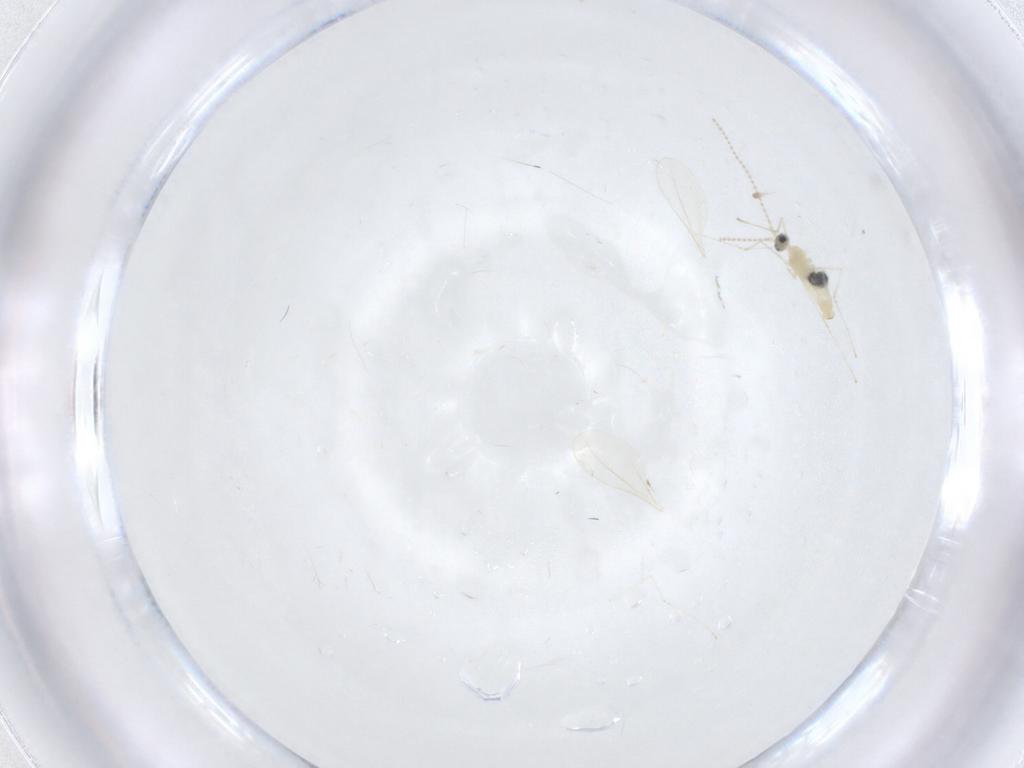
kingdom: Animalia
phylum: Arthropoda
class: Insecta
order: Diptera
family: Cecidomyiidae
